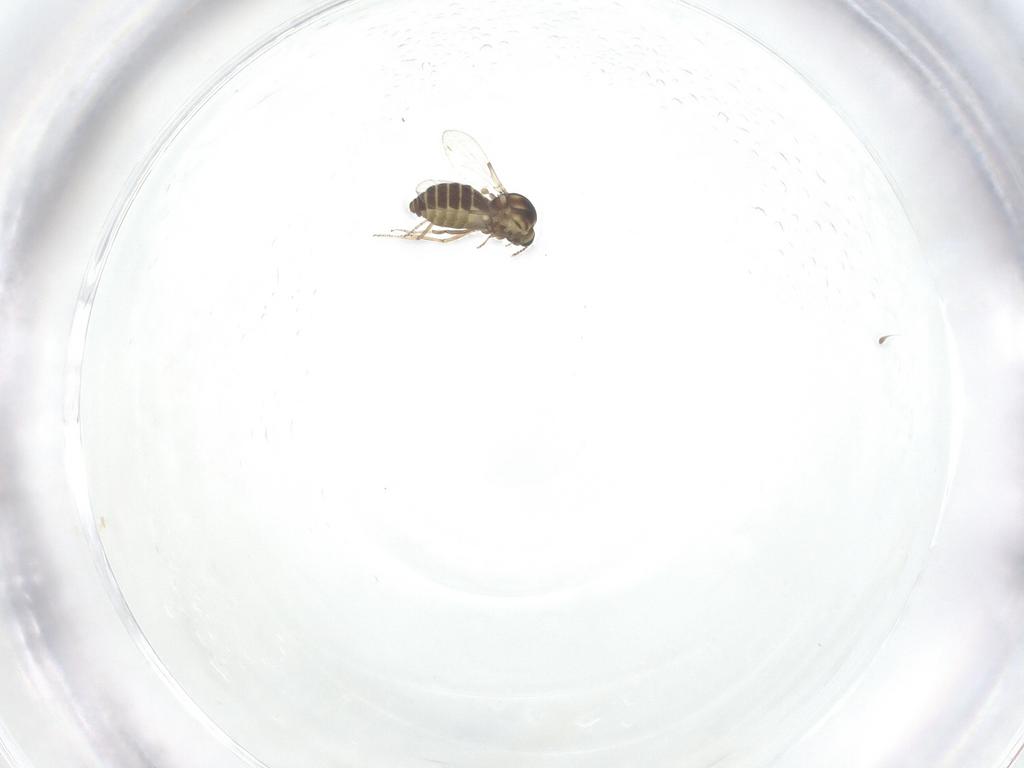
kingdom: Animalia
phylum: Arthropoda
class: Insecta
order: Diptera
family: Ceratopogonidae
